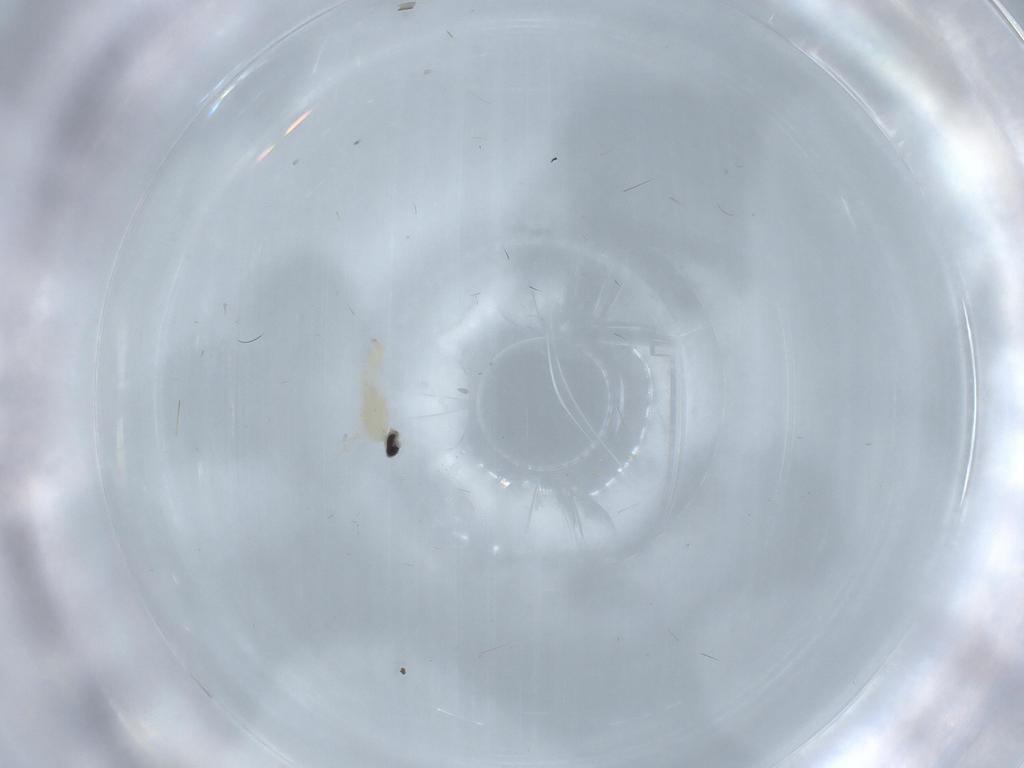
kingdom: Animalia
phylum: Arthropoda
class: Insecta
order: Diptera
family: Cecidomyiidae
